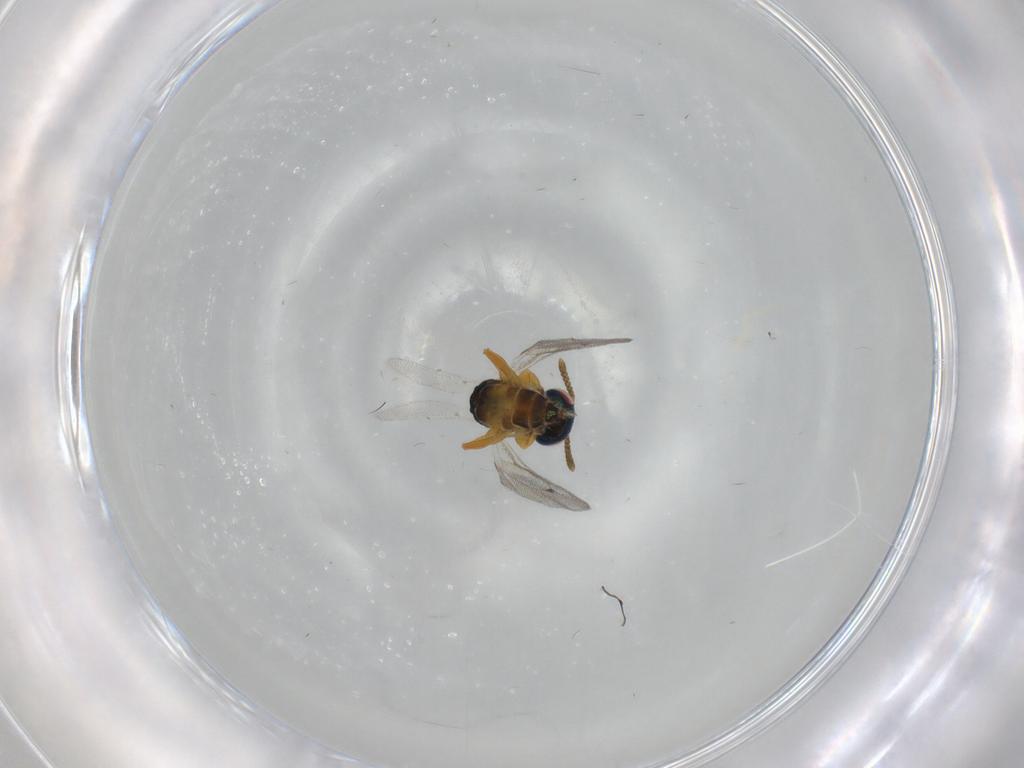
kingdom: Animalia
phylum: Arthropoda
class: Insecta
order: Hymenoptera
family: Pteromalidae
